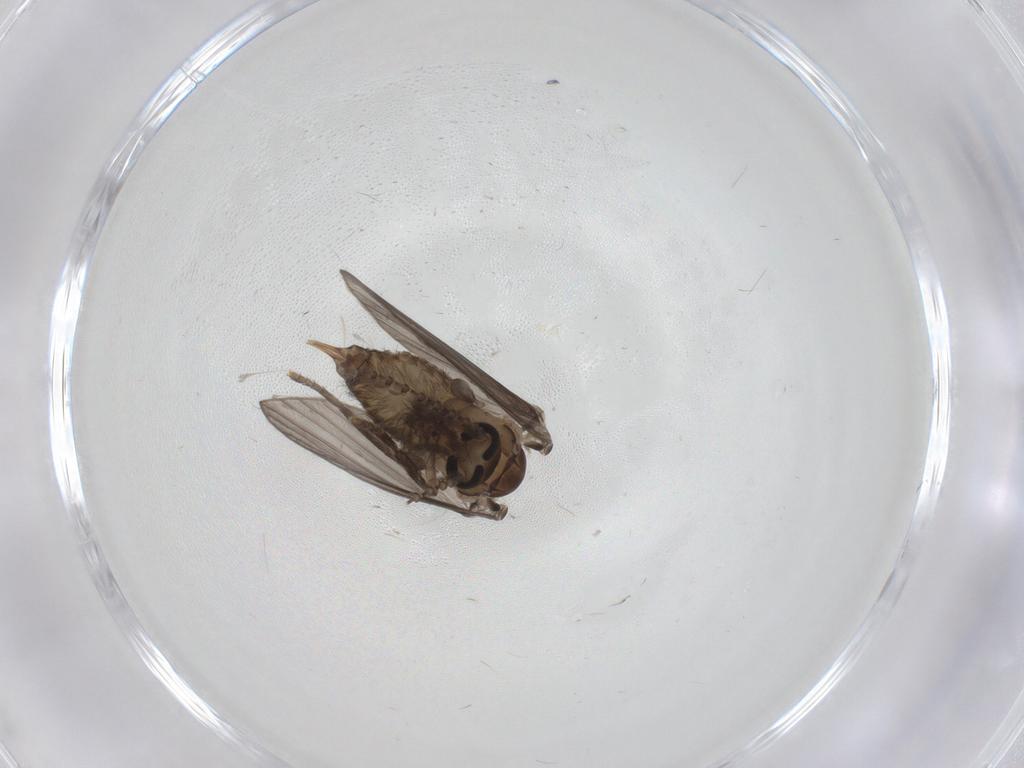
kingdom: Animalia
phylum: Arthropoda
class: Insecta
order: Diptera
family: Psychodidae
